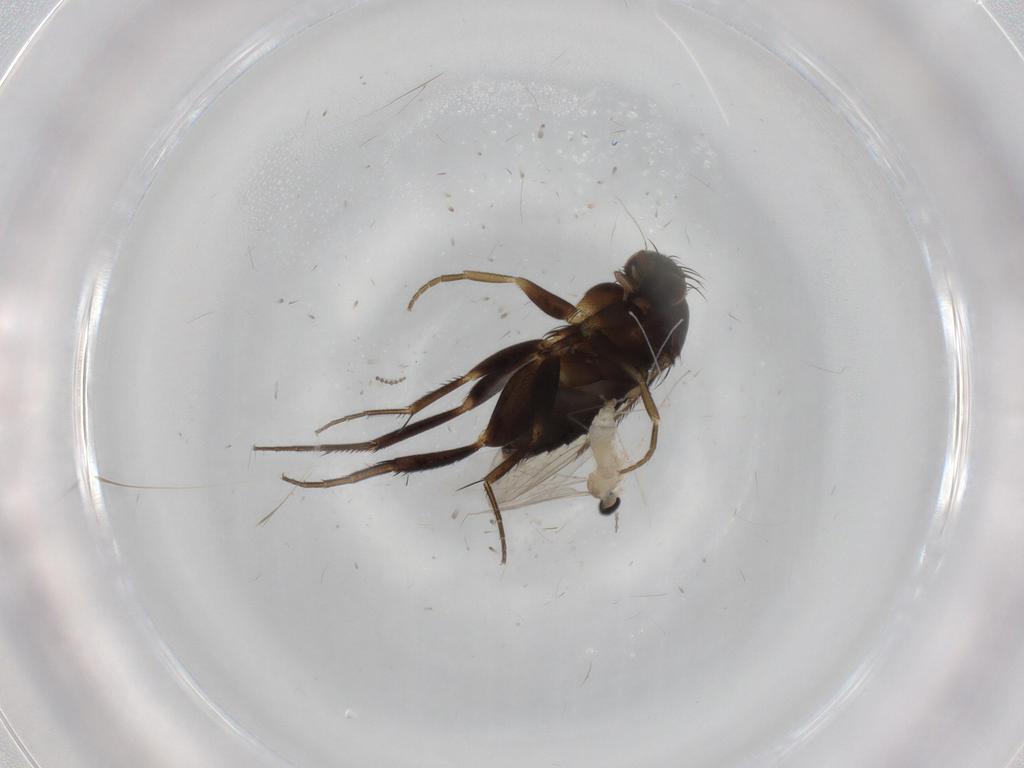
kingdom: Animalia
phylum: Arthropoda
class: Insecta
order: Diptera
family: Cecidomyiidae
